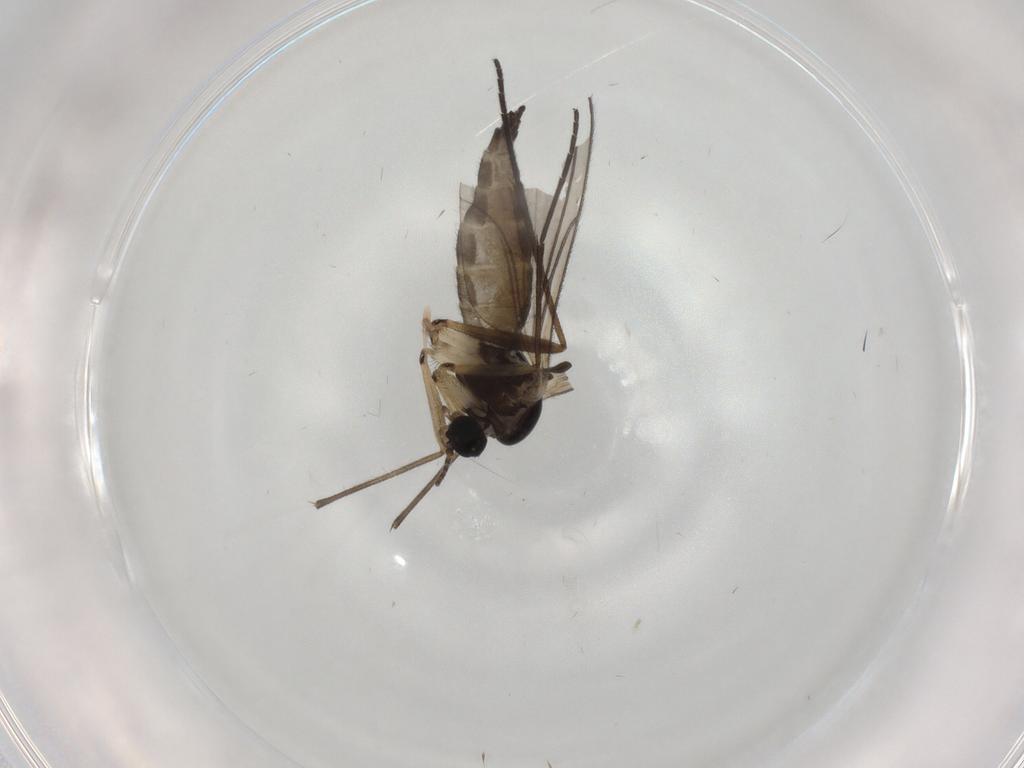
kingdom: Animalia
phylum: Arthropoda
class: Insecta
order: Diptera
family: Sciaridae
